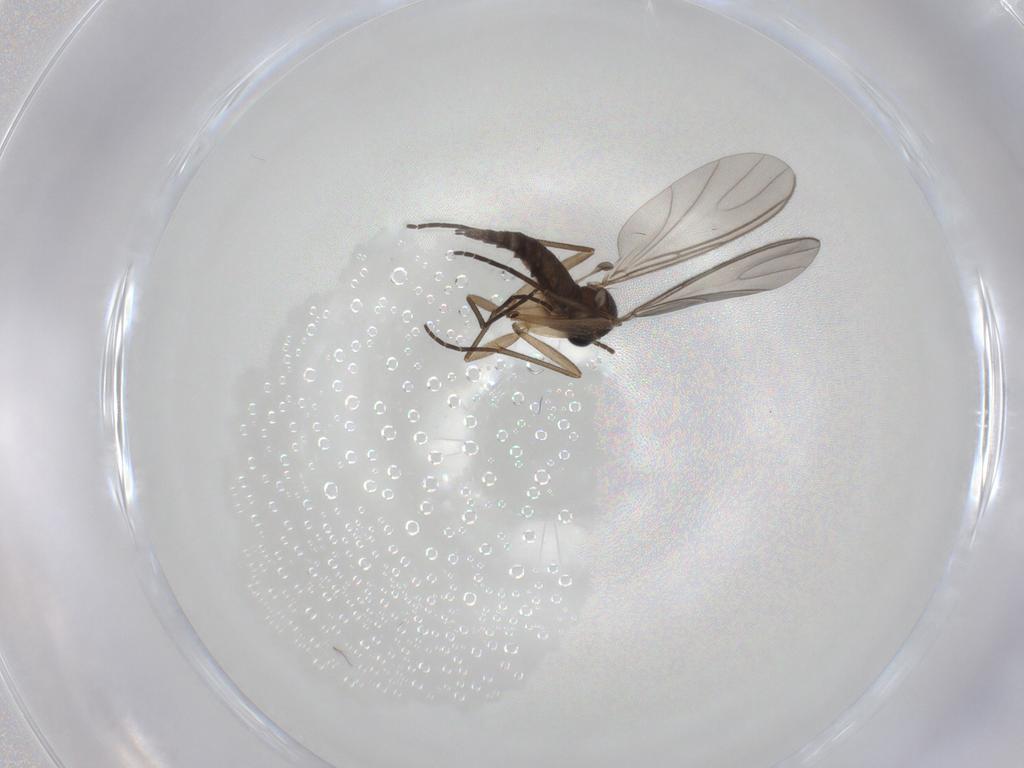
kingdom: Animalia
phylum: Arthropoda
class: Insecta
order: Diptera
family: Sciaridae
